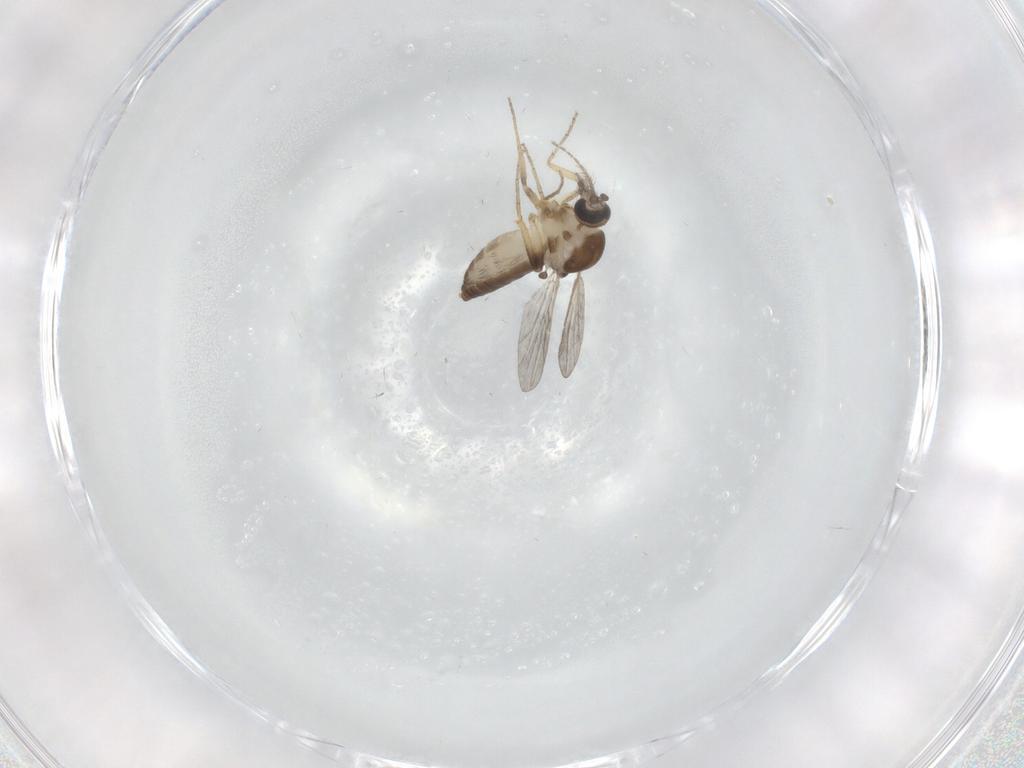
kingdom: Animalia
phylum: Arthropoda
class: Insecta
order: Diptera
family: Ceratopogonidae
